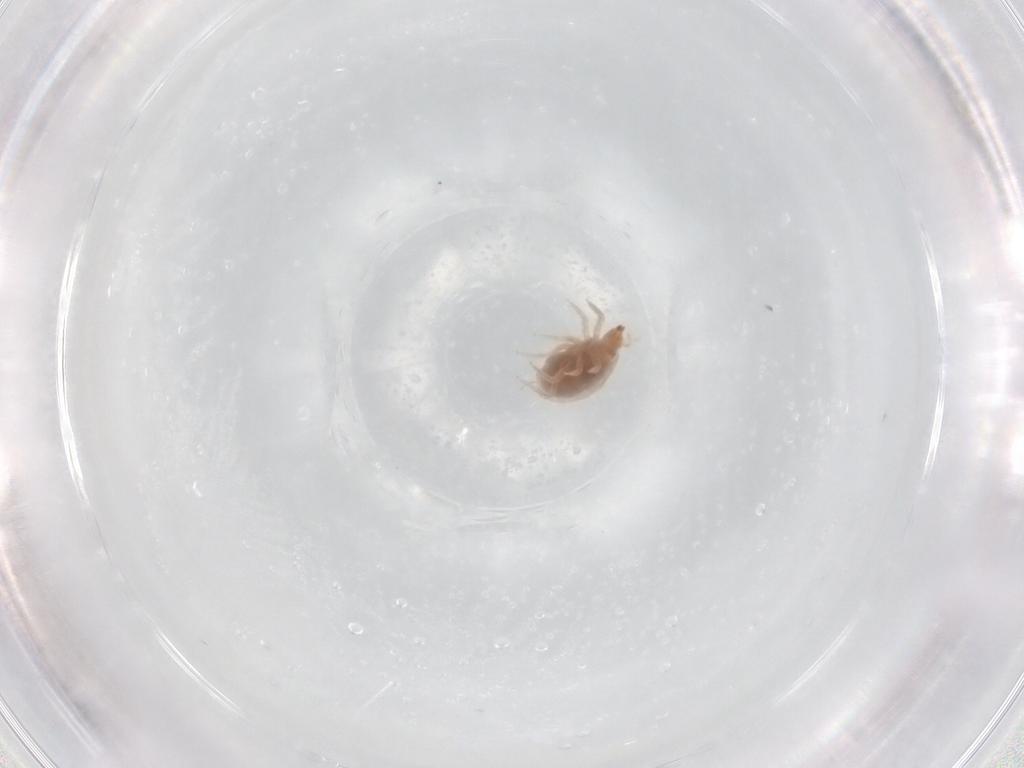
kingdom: Animalia
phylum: Arthropoda
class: Arachnida
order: Trombidiformes
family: Bdellidae
